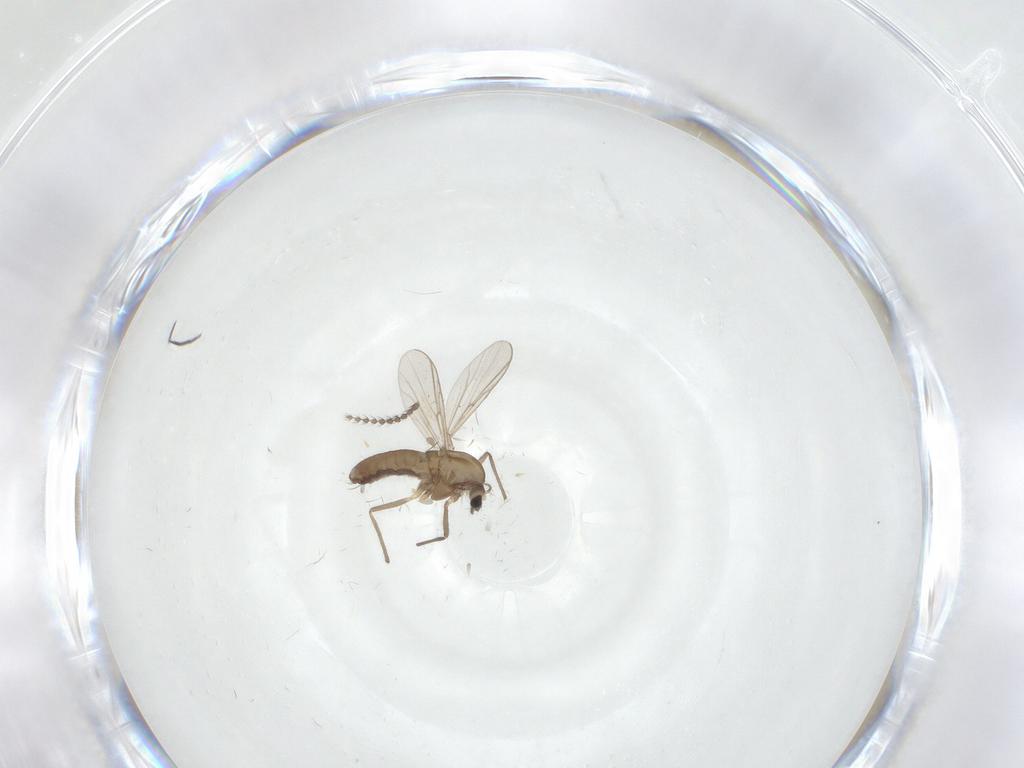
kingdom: Animalia
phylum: Arthropoda
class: Insecta
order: Diptera
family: Chironomidae
